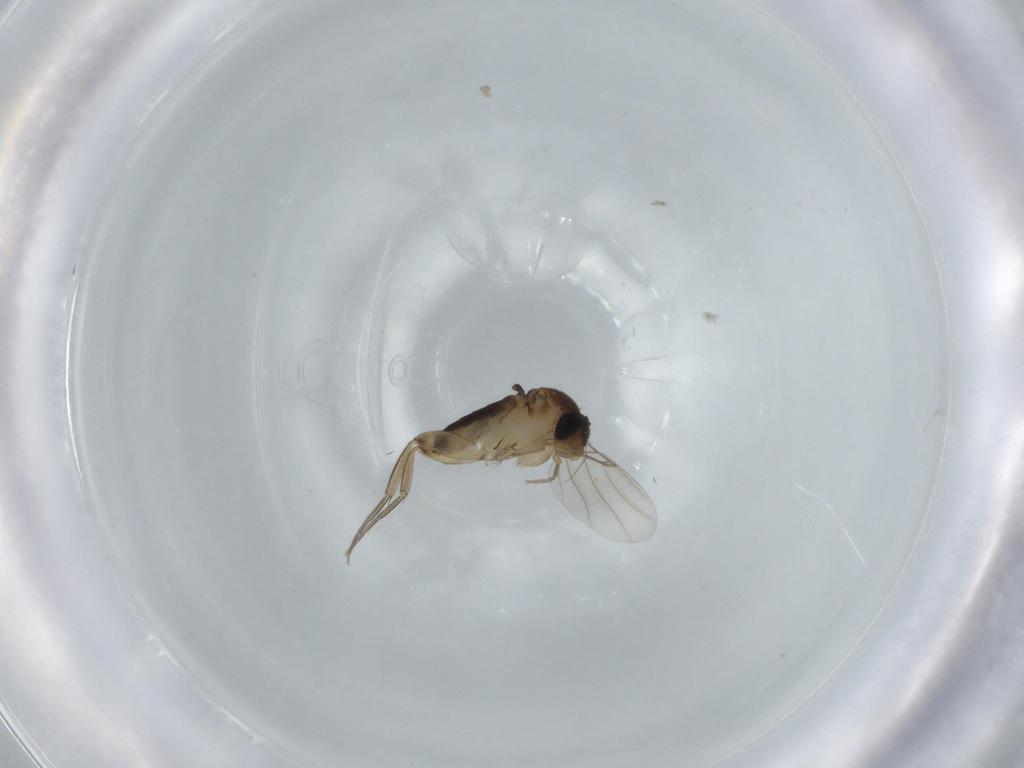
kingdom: Animalia
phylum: Arthropoda
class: Insecta
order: Diptera
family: Phoridae
